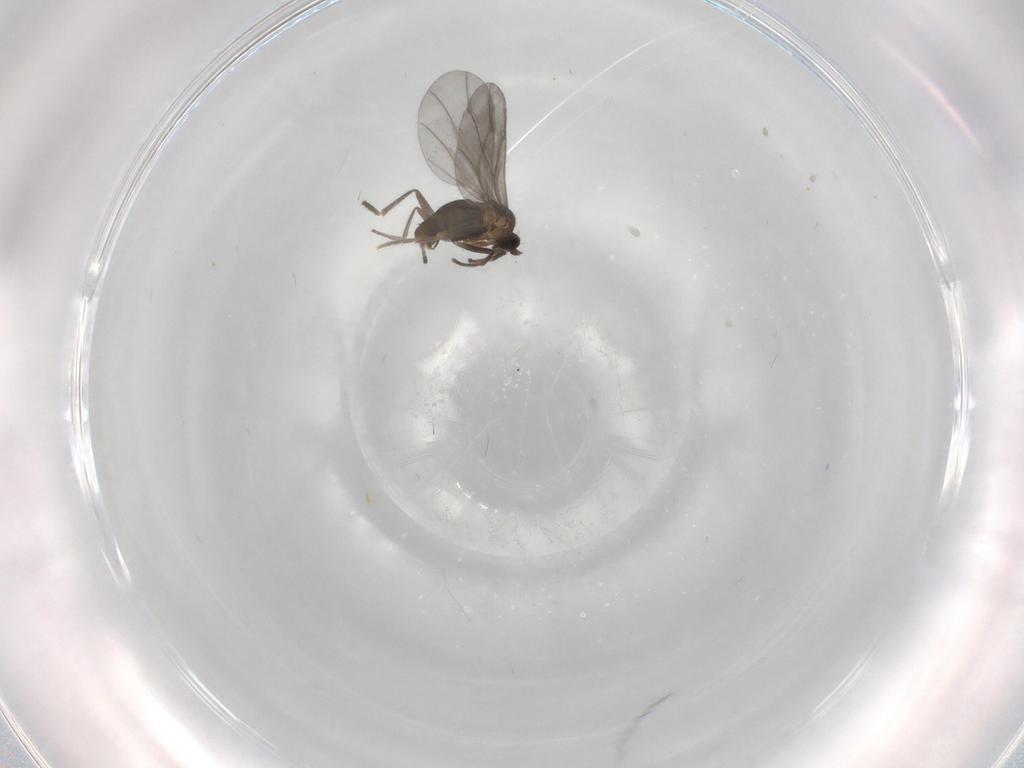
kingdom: Animalia
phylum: Arthropoda
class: Insecta
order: Diptera
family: Phoridae
